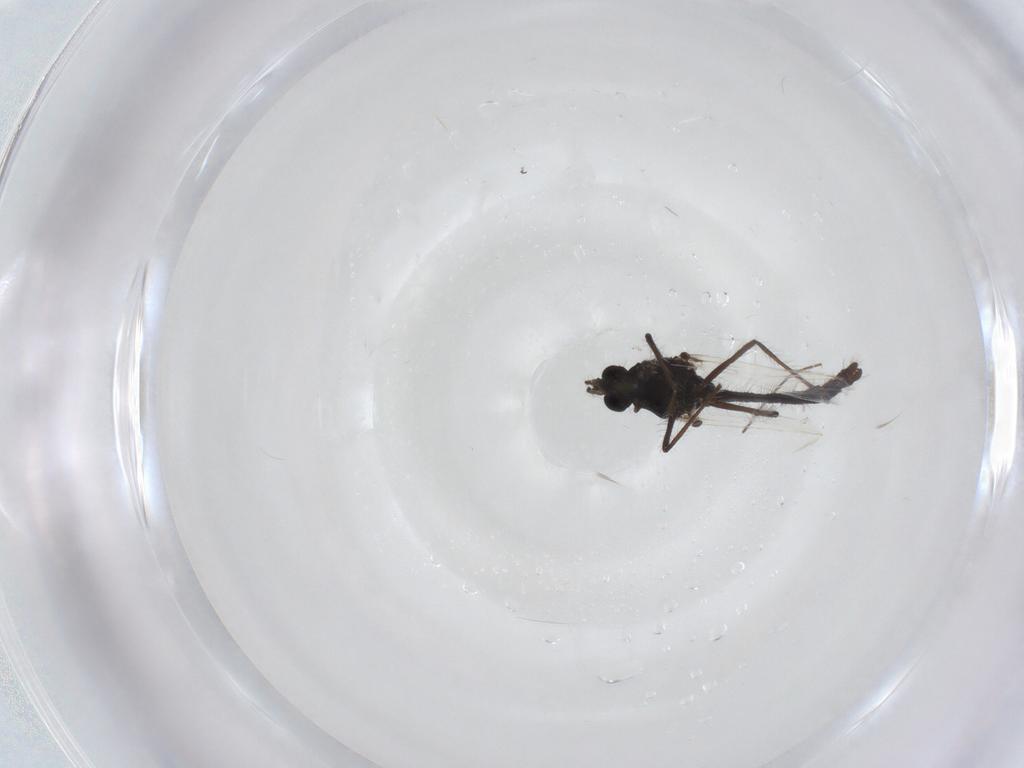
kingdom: Animalia
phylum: Arthropoda
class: Insecta
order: Diptera
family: Chironomidae
